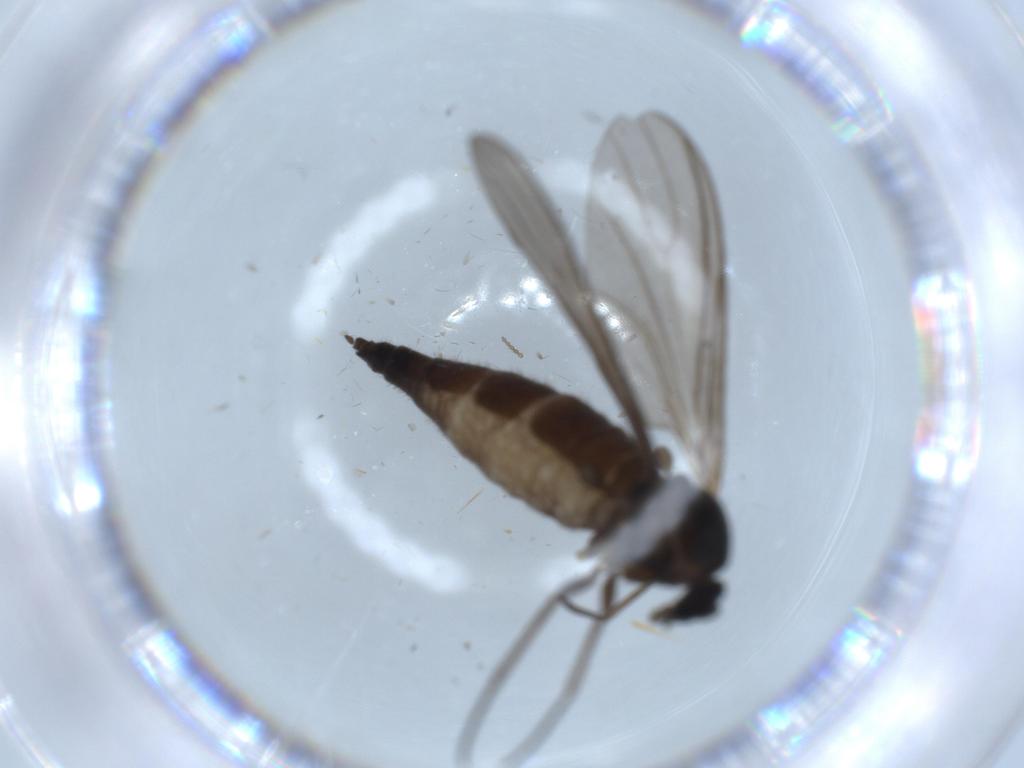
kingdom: Animalia
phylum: Arthropoda
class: Insecta
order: Diptera
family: Sciaridae
